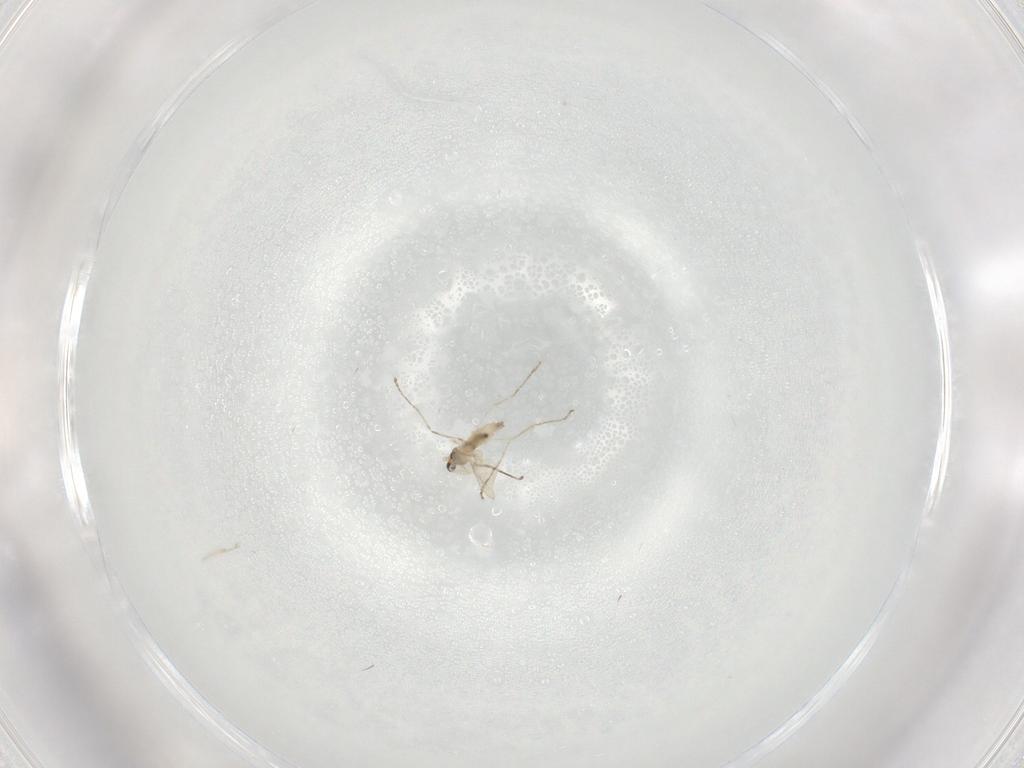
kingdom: Animalia
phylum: Arthropoda
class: Insecta
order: Diptera
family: Cecidomyiidae
